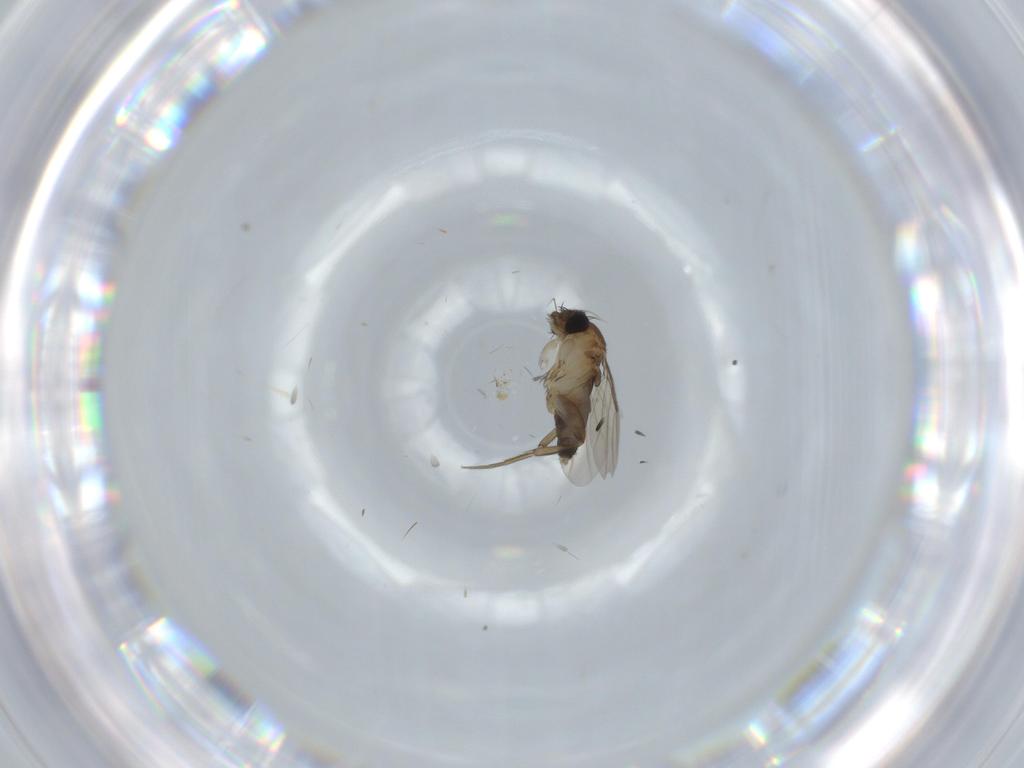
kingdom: Animalia
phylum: Arthropoda
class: Insecta
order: Diptera
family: Phoridae
